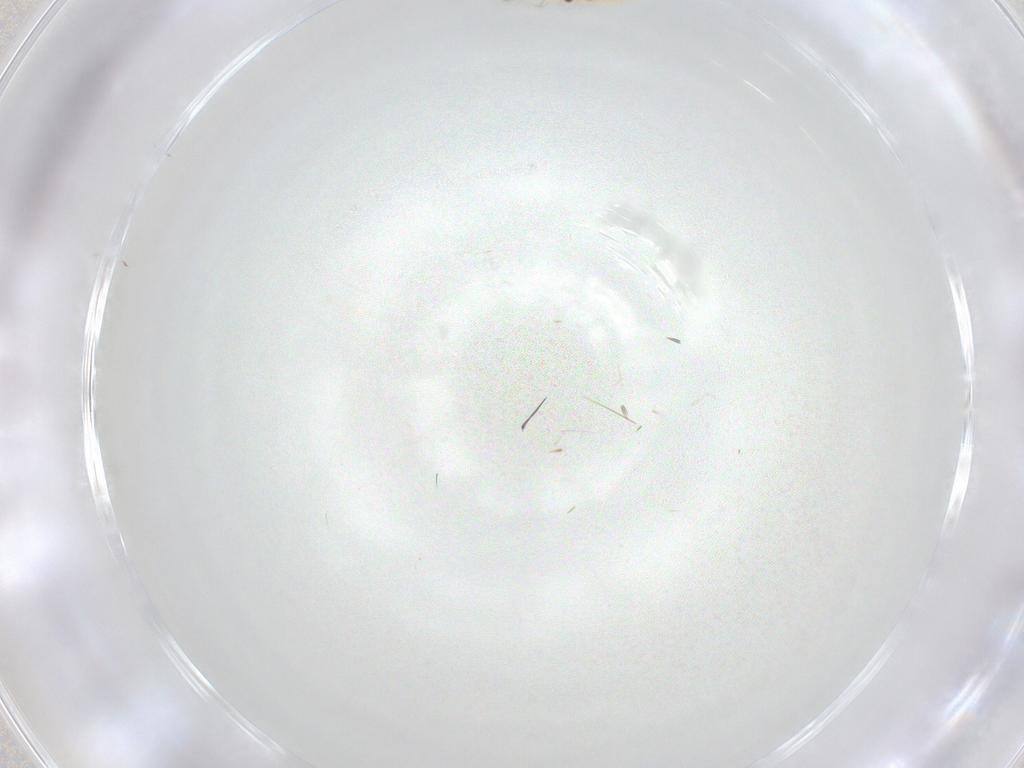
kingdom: Animalia
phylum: Arthropoda
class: Insecta
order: Hemiptera
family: Aphalaridae
